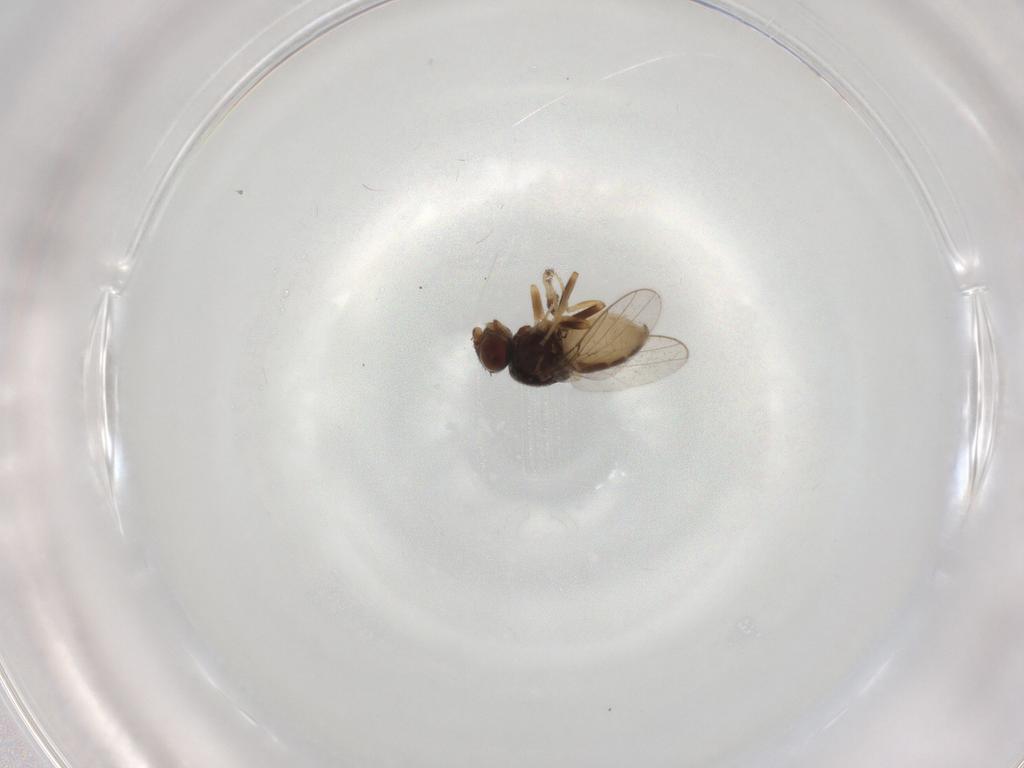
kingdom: Animalia
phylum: Arthropoda
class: Insecta
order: Diptera
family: Chloropidae
